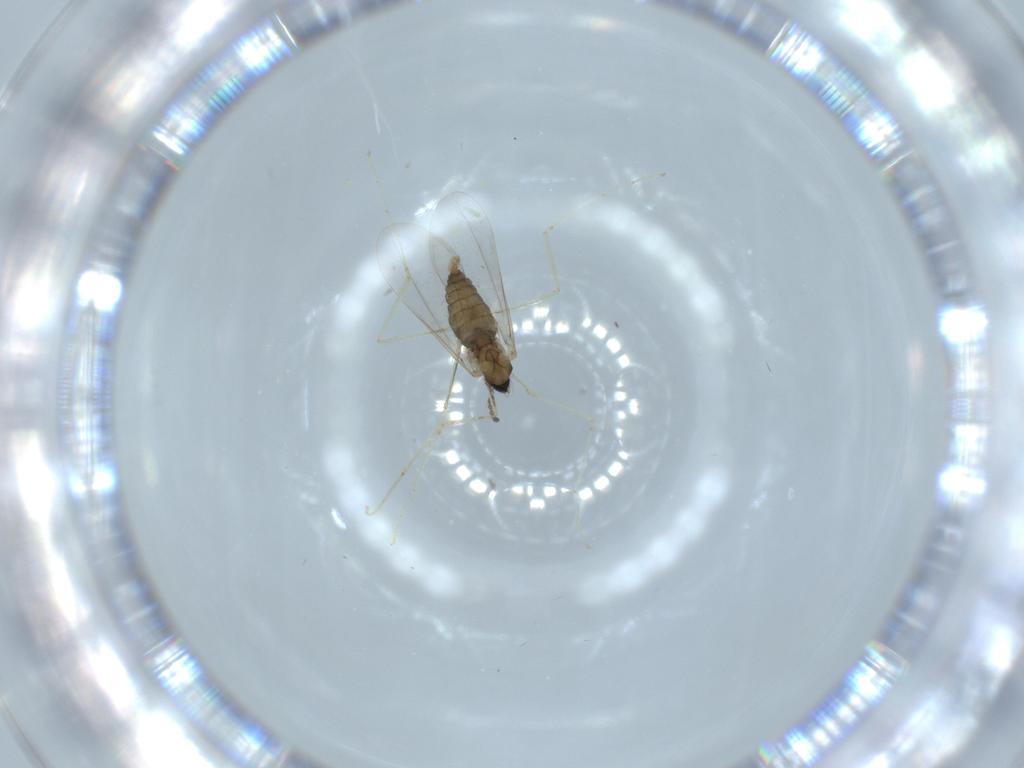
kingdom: Animalia
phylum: Arthropoda
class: Insecta
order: Diptera
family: Cecidomyiidae
